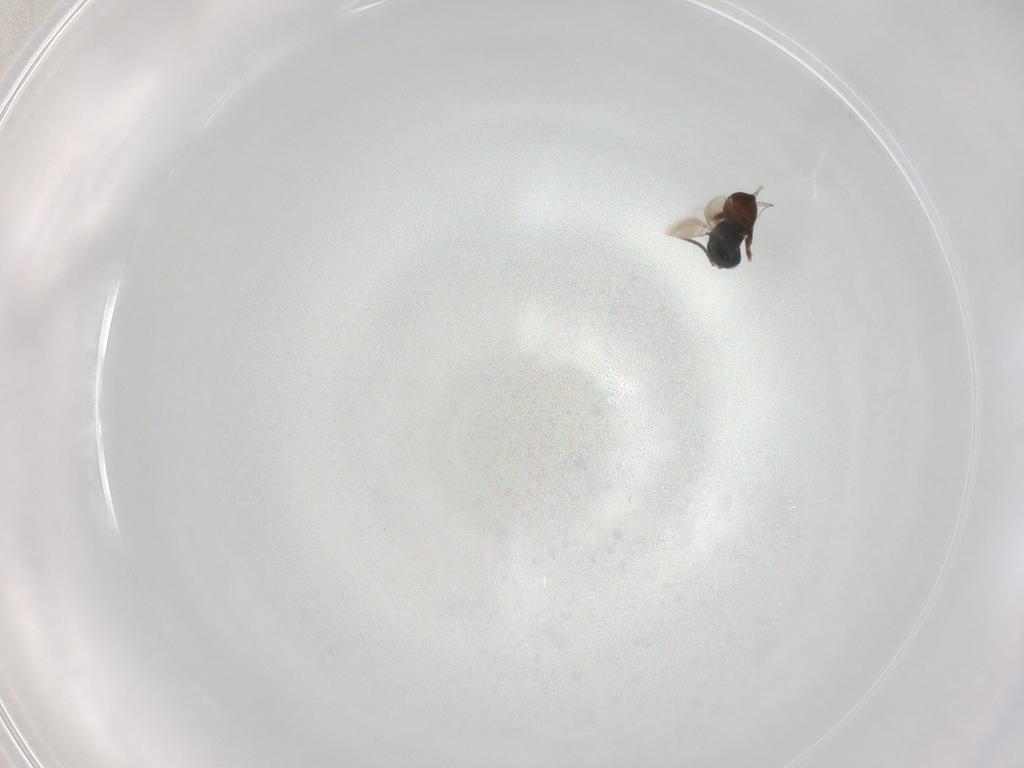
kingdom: Animalia
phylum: Arthropoda
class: Insecta
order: Hymenoptera
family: Scelionidae
